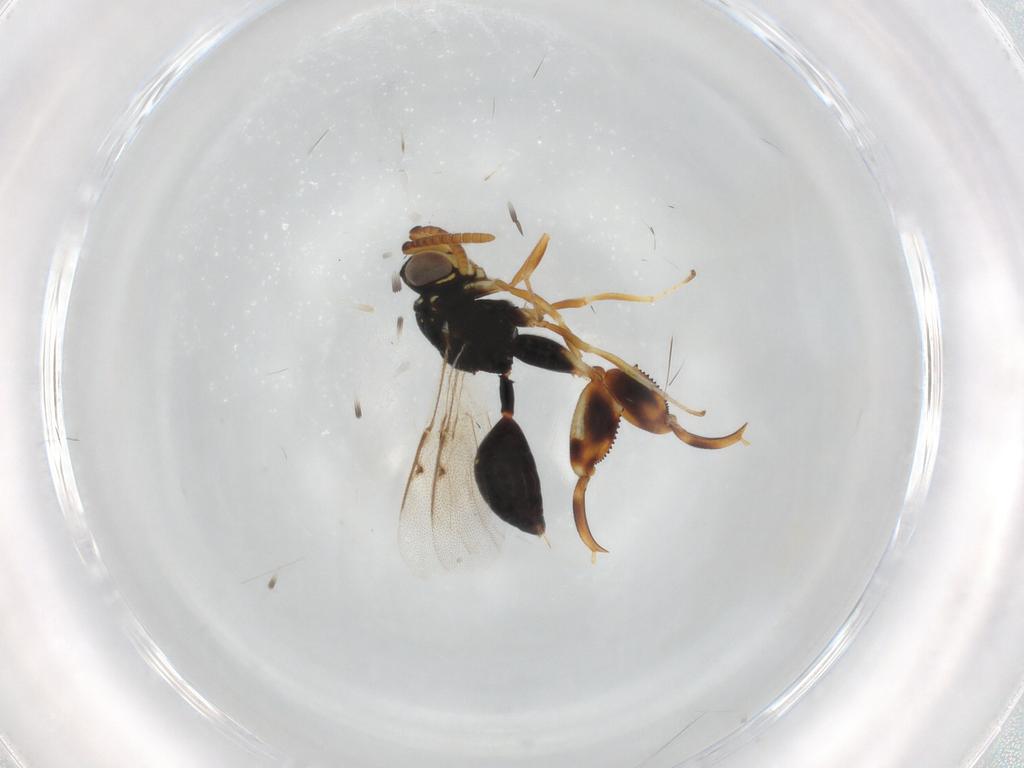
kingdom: Animalia
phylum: Arthropoda
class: Insecta
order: Hymenoptera
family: Chalcididae
